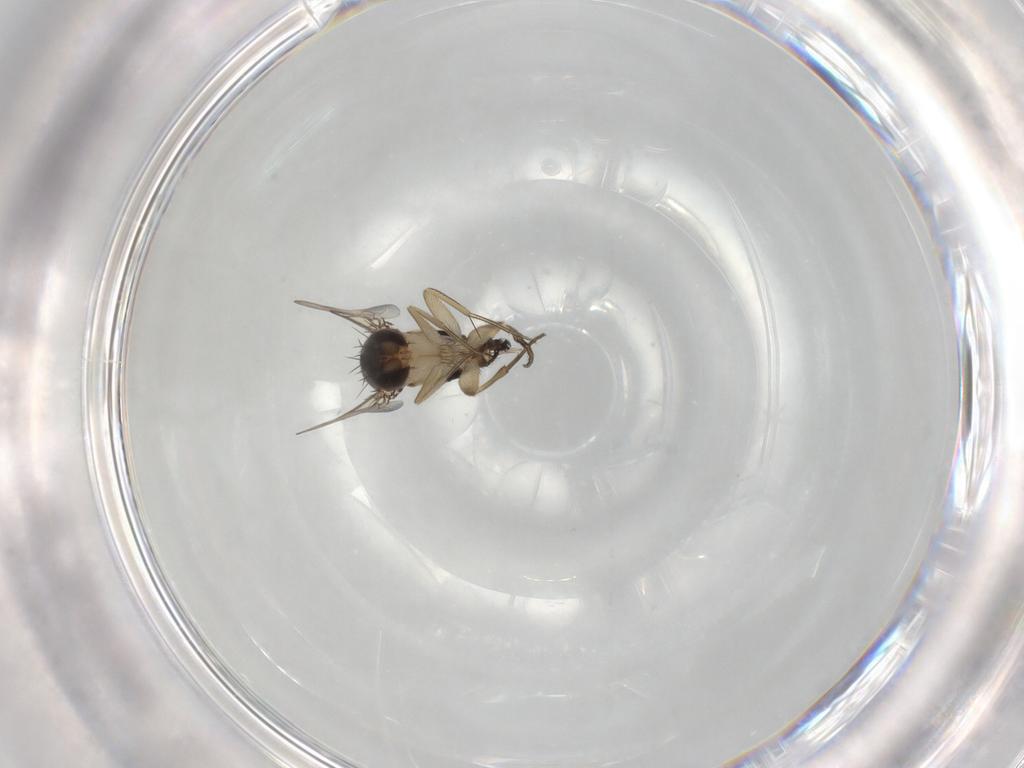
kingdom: Animalia
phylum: Arthropoda
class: Insecta
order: Diptera
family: Phoridae
